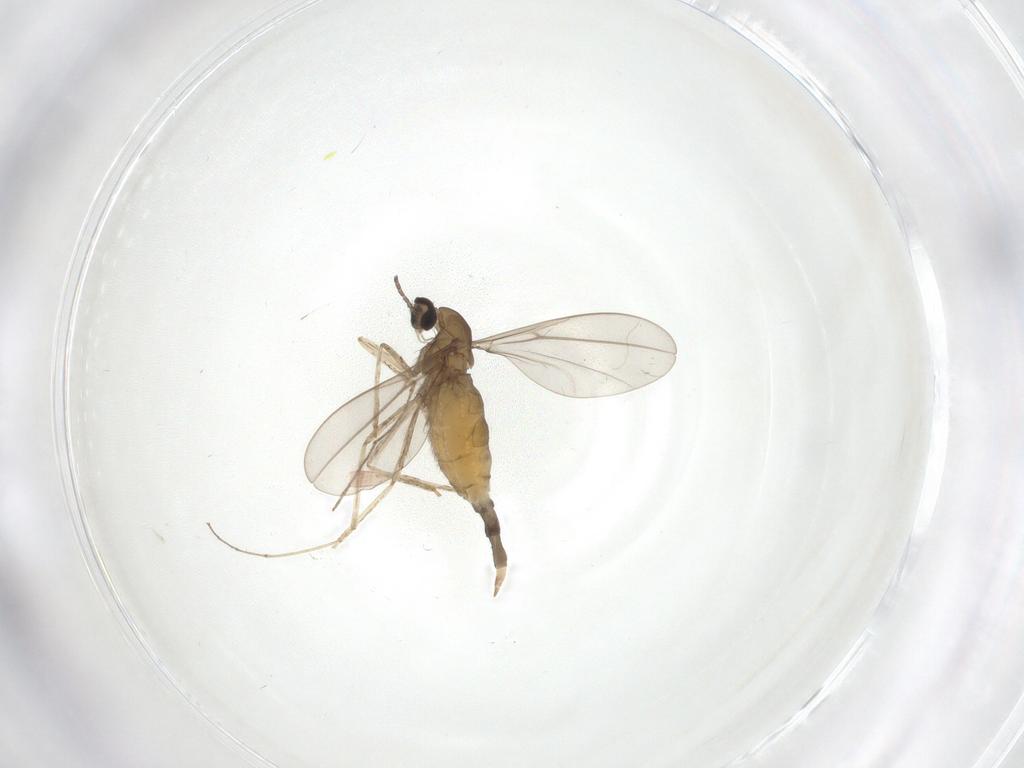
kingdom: Animalia
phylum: Arthropoda
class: Insecta
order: Diptera
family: Cecidomyiidae
